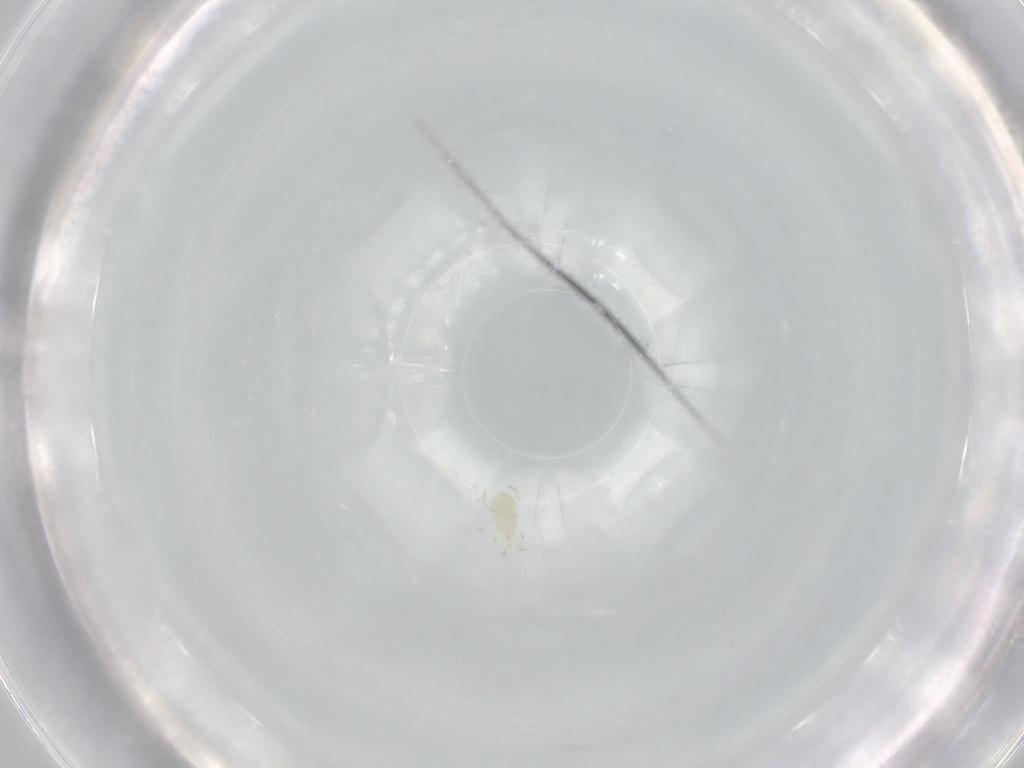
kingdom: Animalia
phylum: Arthropoda
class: Arachnida
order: Mesostigmata
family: Phytoseiidae
